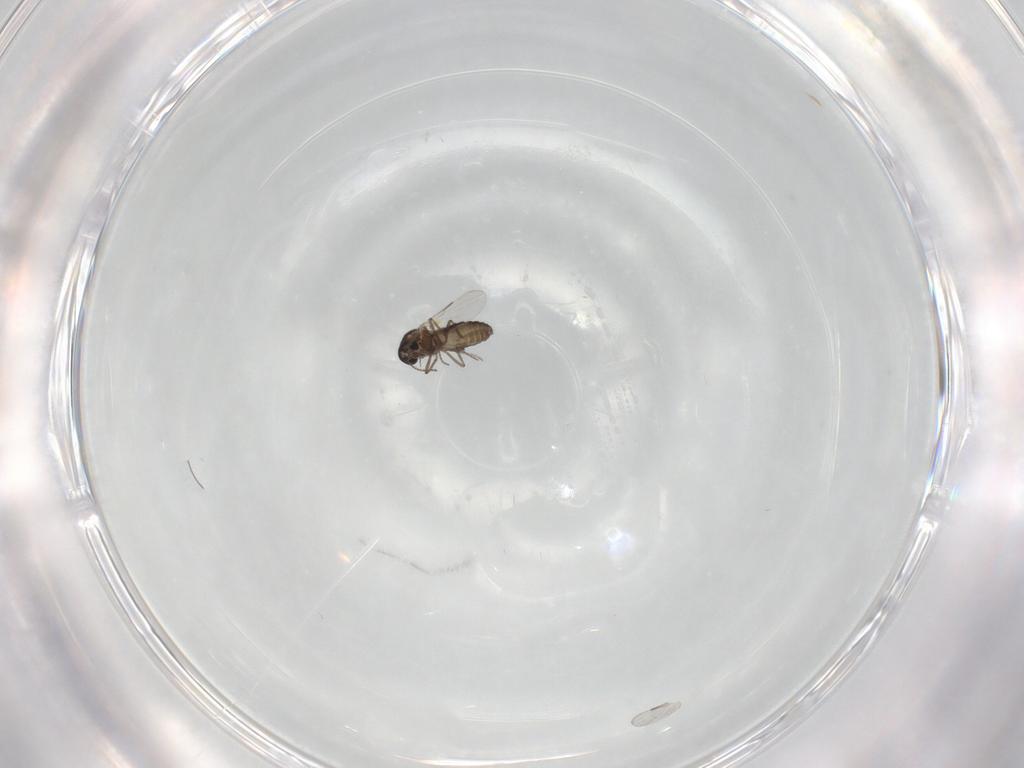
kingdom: Animalia
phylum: Arthropoda
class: Insecta
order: Diptera
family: Ceratopogonidae
